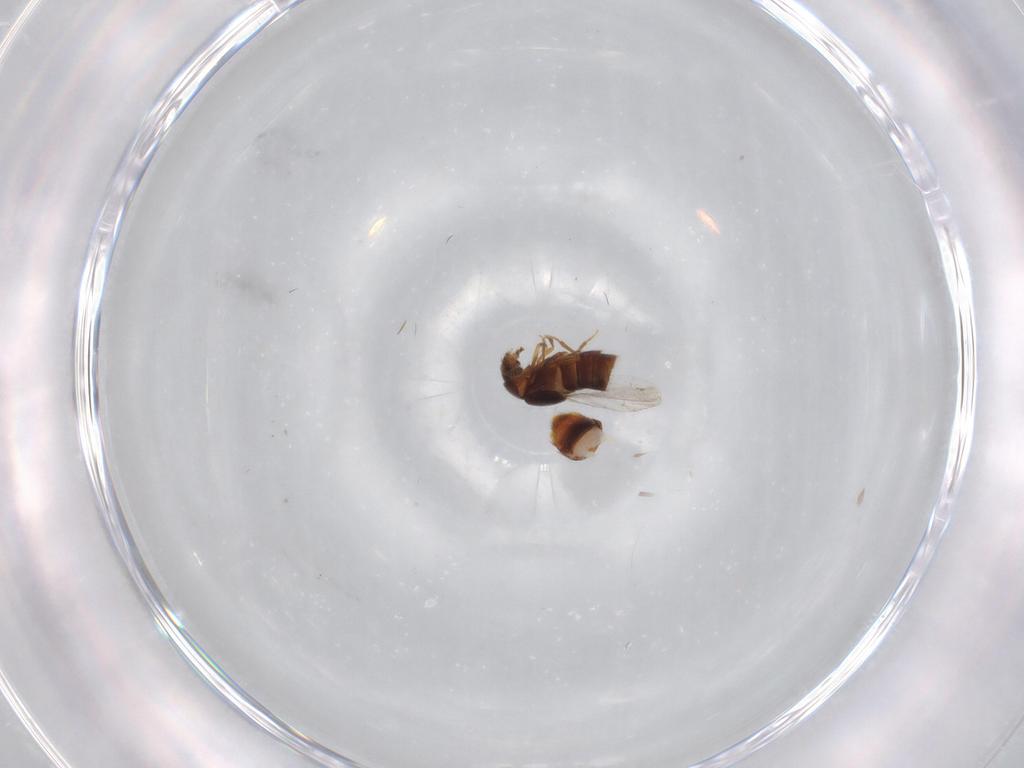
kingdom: Animalia
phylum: Arthropoda
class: Insecta
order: Coleoptera
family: Staphylinidae
